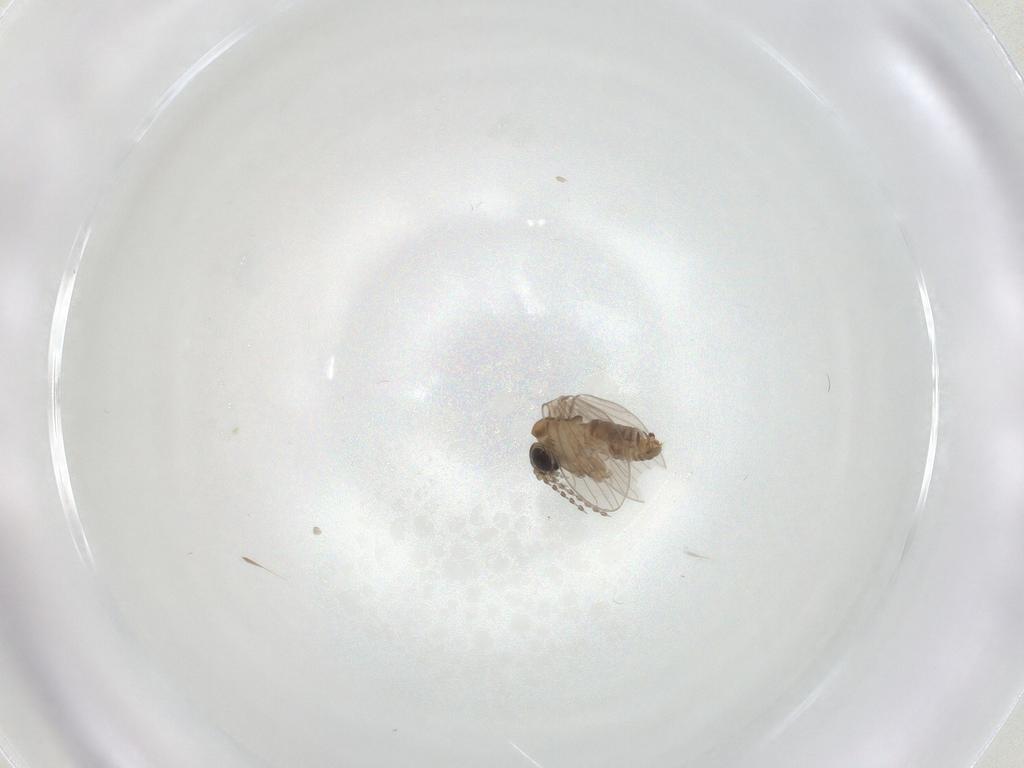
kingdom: Animalia
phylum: Arthropoda
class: Insecta
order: Diptera
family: Psychodidae
